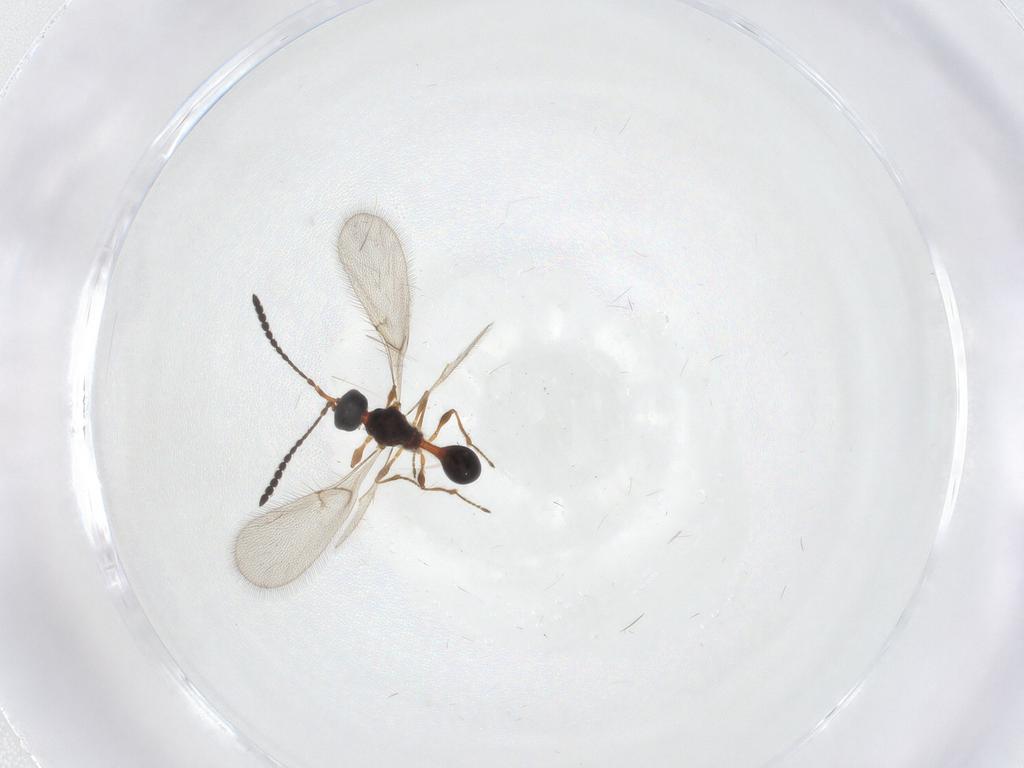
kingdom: Animalia
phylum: Arthropoda
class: Insecta
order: Hymenoptera
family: Diapriidae
